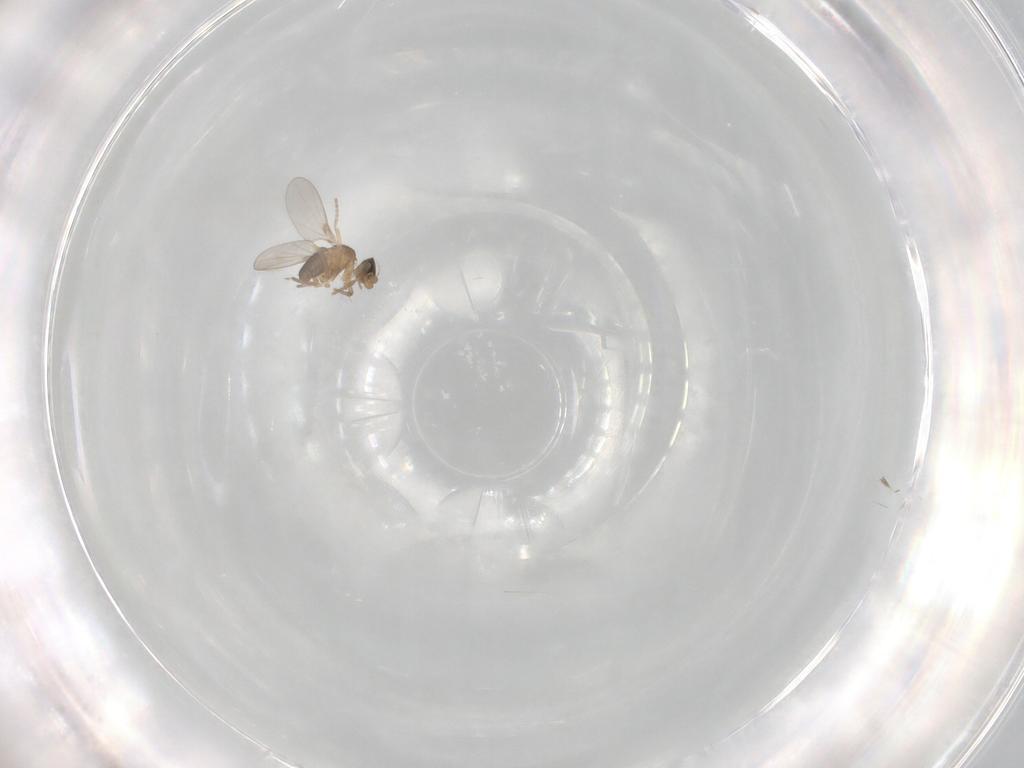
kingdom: Animalia
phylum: Arthropoda
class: Insecta
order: Diptera
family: Phoridae
